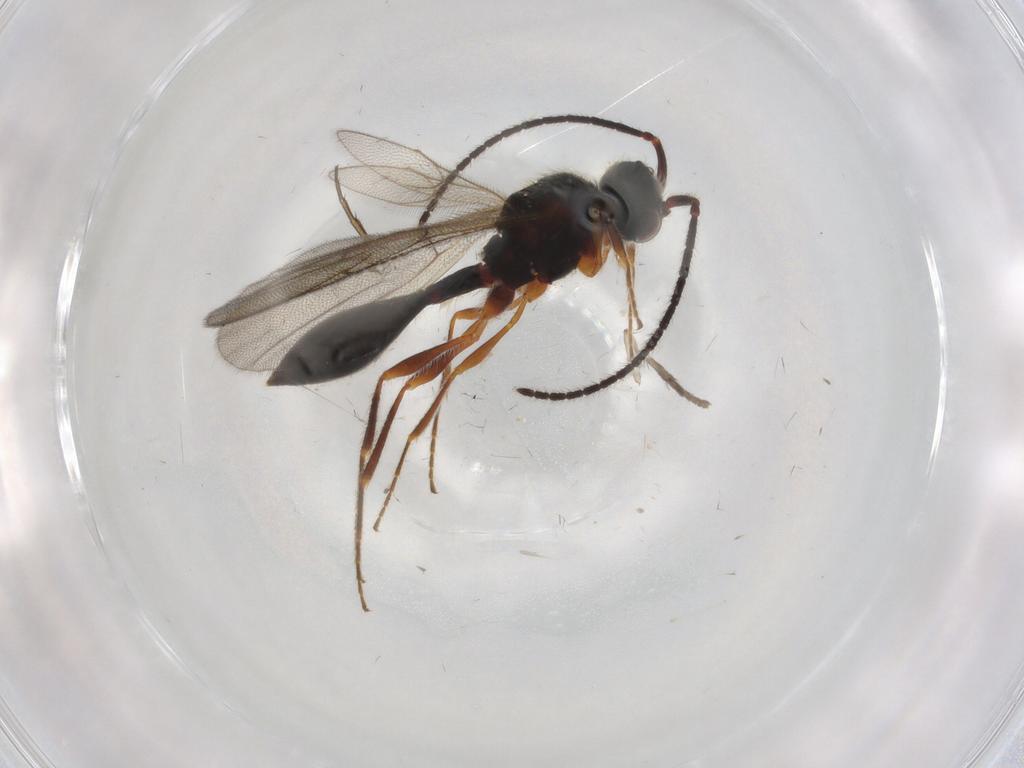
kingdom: Animalia
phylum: Arthropoda
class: Insecta
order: Hymenoptera
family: Diapriidae
